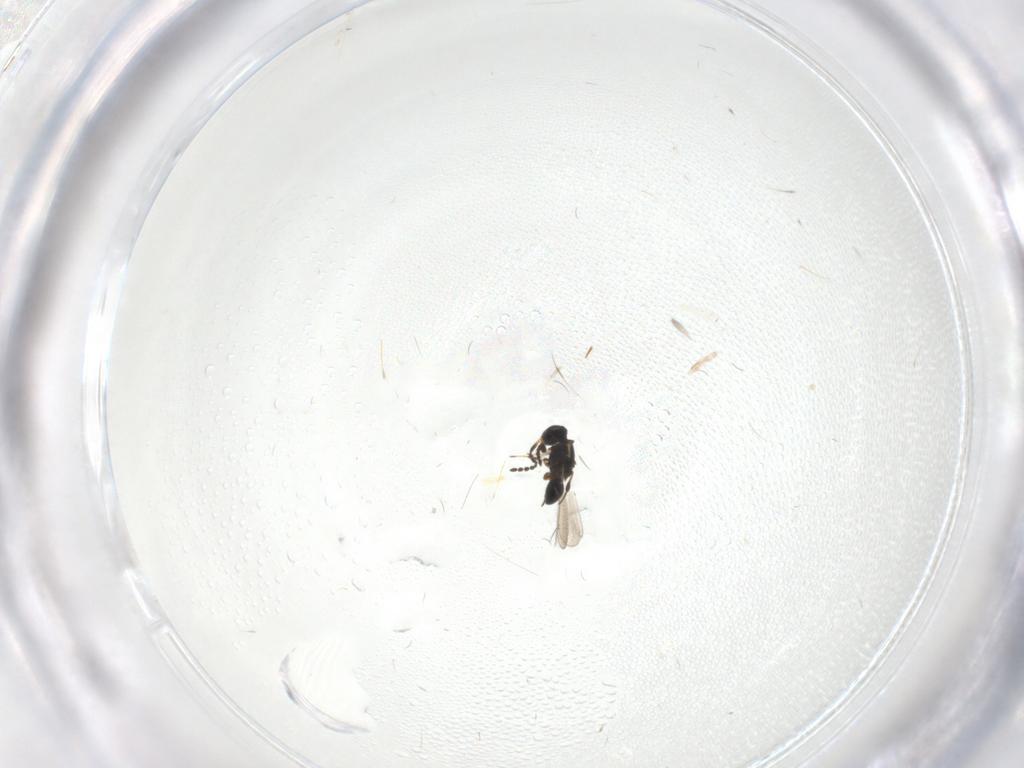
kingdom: Animalia
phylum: Arthropoda
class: Insecta
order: Hymenoptera
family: Platygastridae
